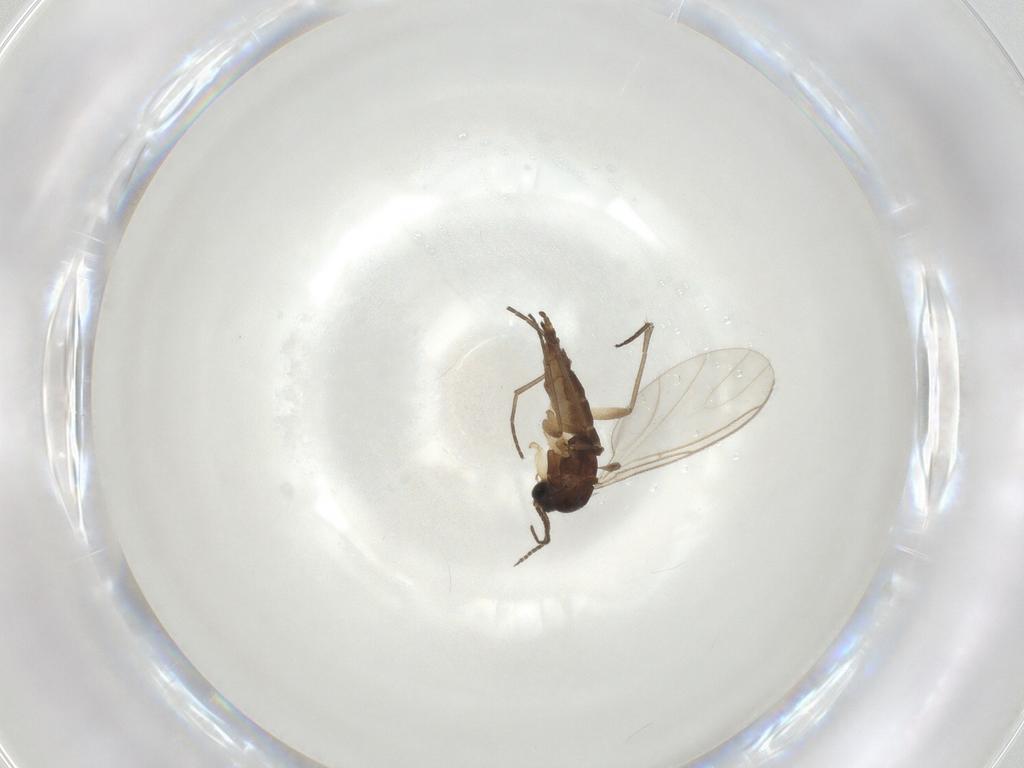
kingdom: Animalia
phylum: Arthropoda
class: Insecta
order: Diptera
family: Sciaridae
